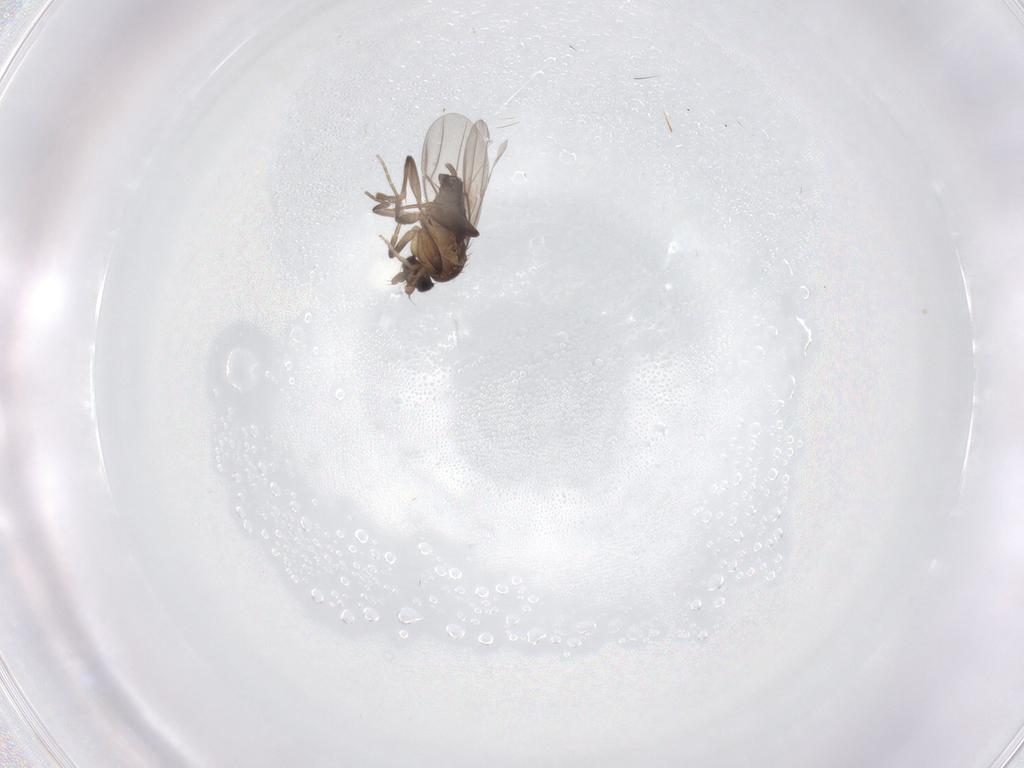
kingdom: Animalia
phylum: Arthropoda
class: Insecta
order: Diptera
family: Phoridae
